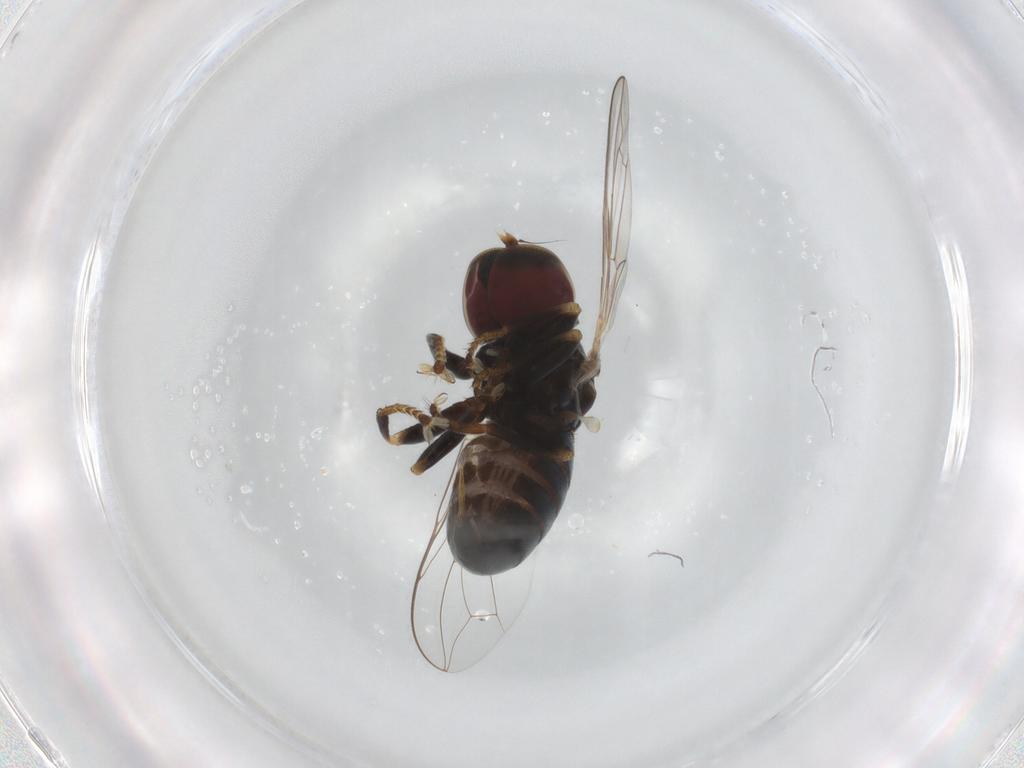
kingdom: Animalia
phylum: Arthropoda
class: Insecta
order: Diptera
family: Pipunculidae
